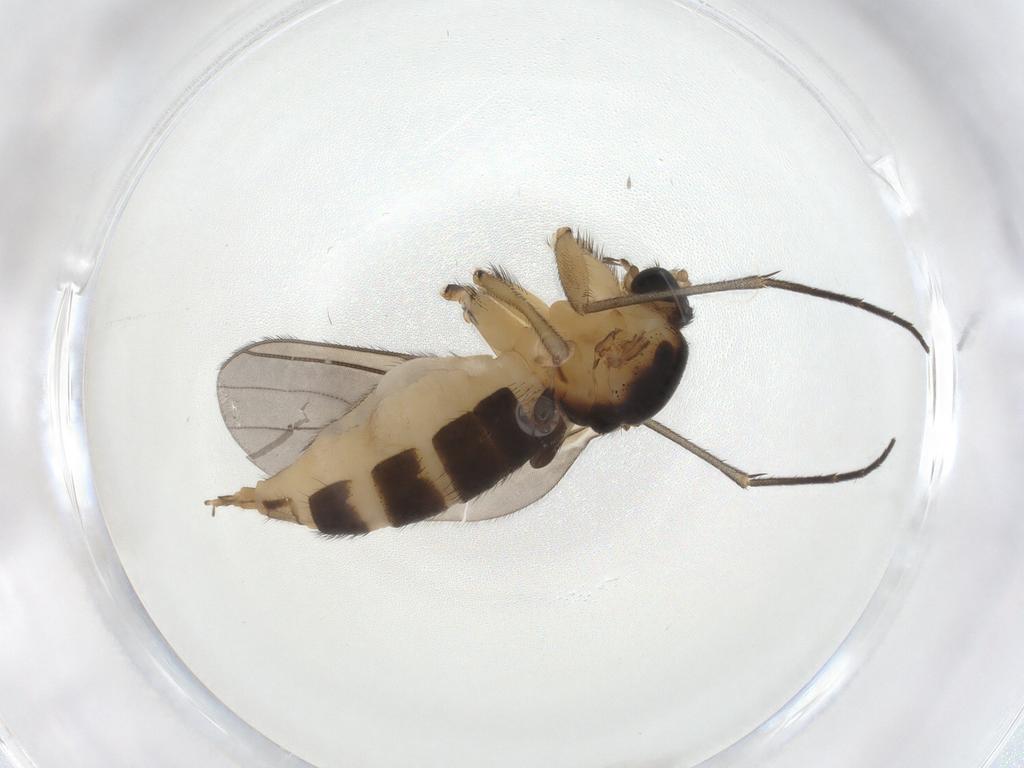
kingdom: Animalia
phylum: Arthropoda
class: Insecta
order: Diptera
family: Sciaridae
